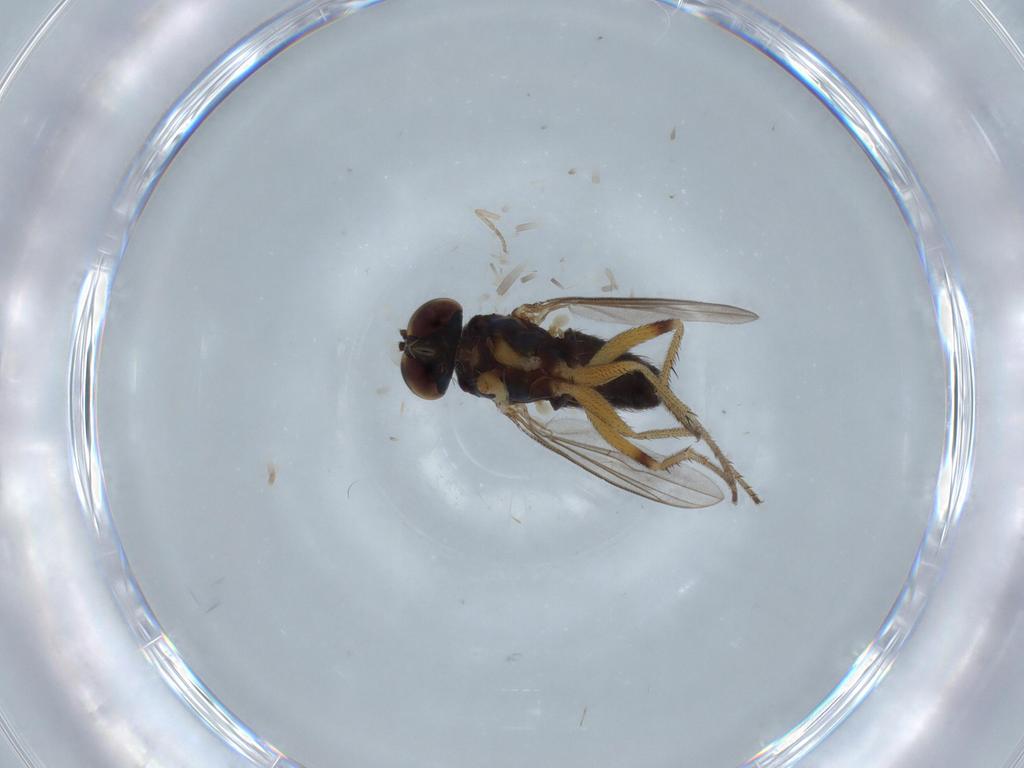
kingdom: Animalia
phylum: Arthropoda
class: Insecta
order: Diptera
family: Cecidomyiidae
